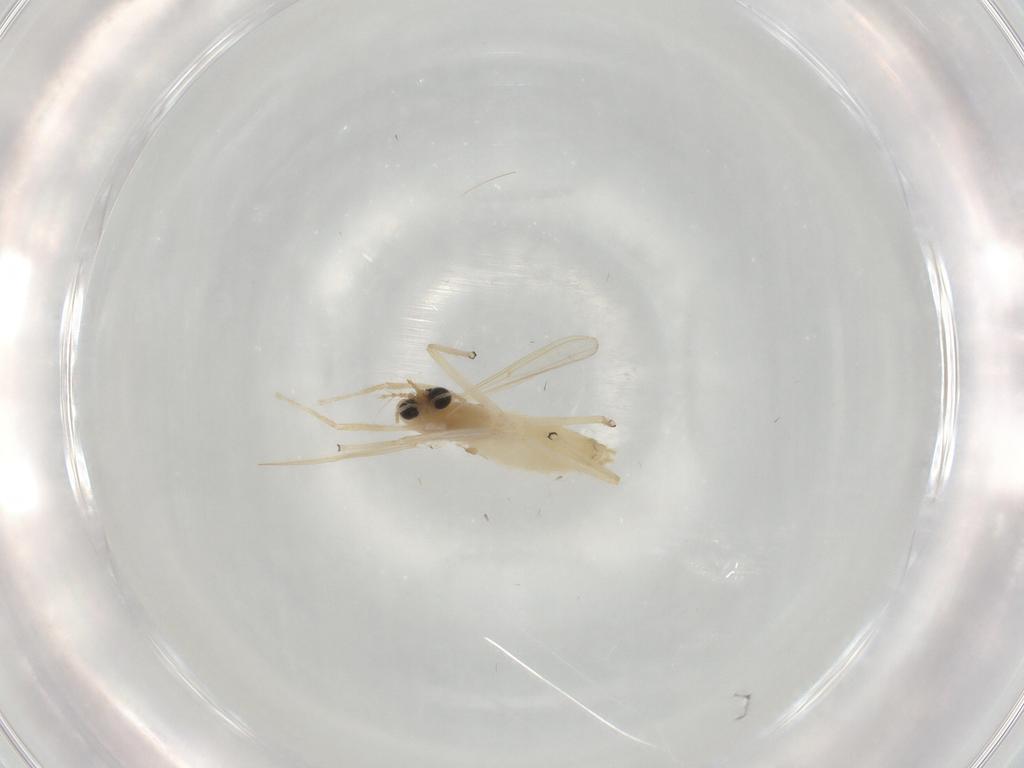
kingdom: Animalia
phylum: Arthropoda
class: Insecta
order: Diptera
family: Chironomidae
